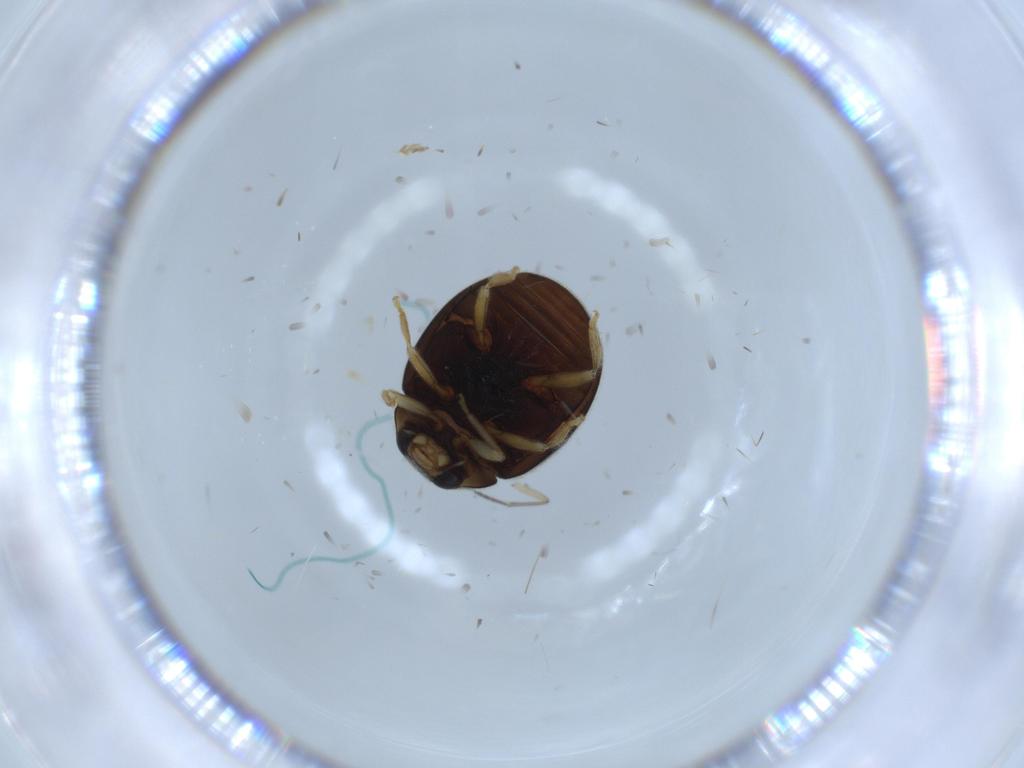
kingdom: Animalia
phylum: Arthropoda
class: Insecta
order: Coleoptera
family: Coccinellidae
